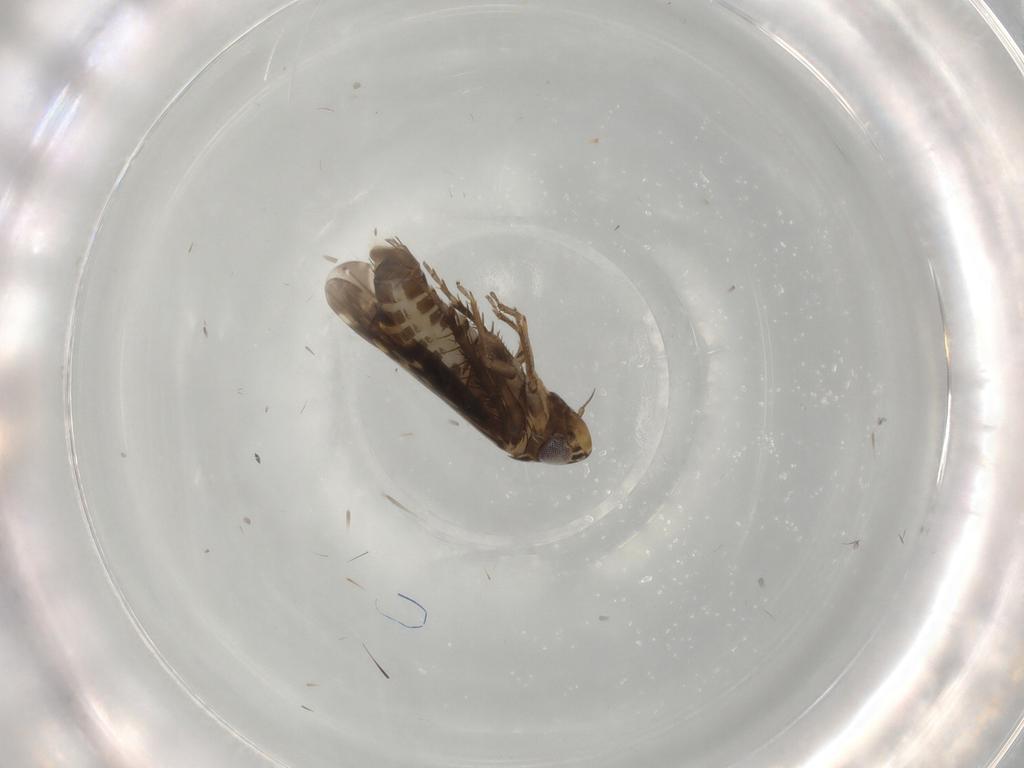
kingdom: Animalia
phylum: Arthropoda
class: Insecta
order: Hemiptera
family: Cicadellidae
